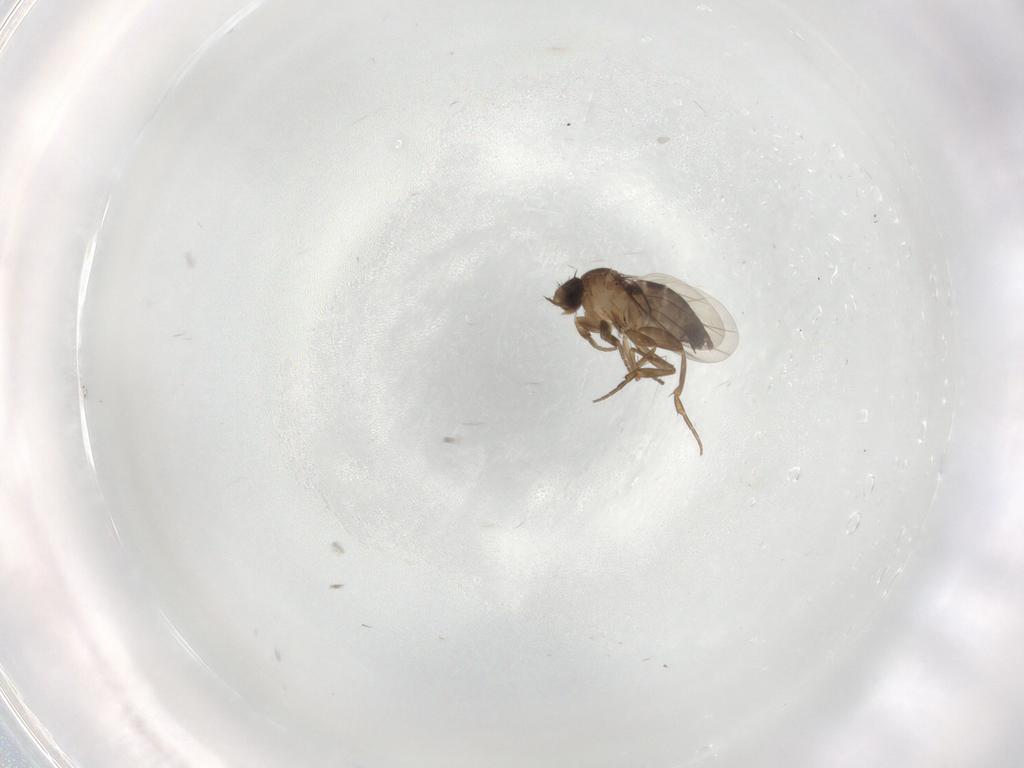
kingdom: Animalia
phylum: Arthropoda
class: Insecta
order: Diptera
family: Phoridae
